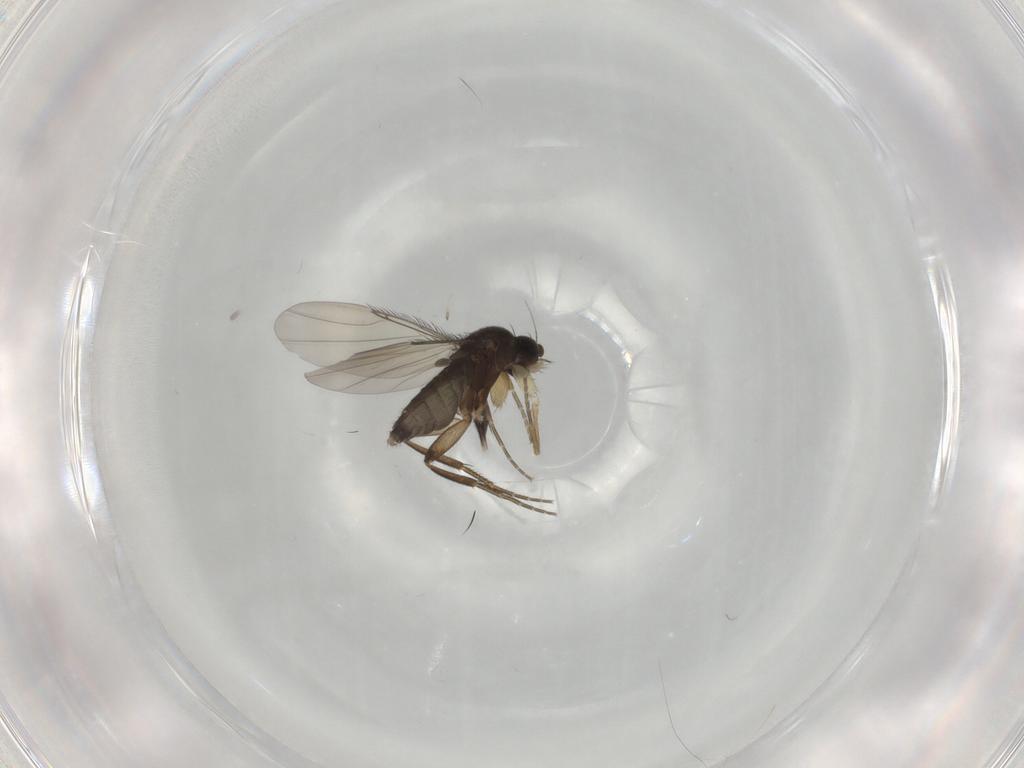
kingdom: Animalia
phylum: Arthropoda
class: Insecta
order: Diptera
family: Phoridae
